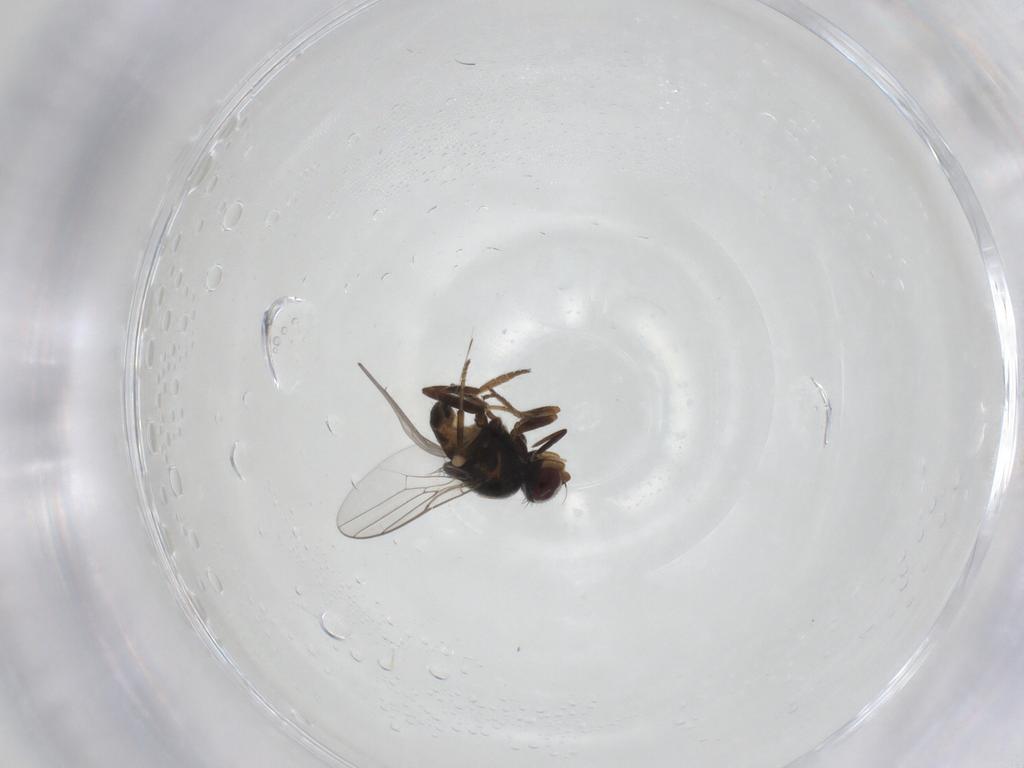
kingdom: Animalia
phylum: Arthropoda
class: Insecta
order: Diptera
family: Chloropidae
